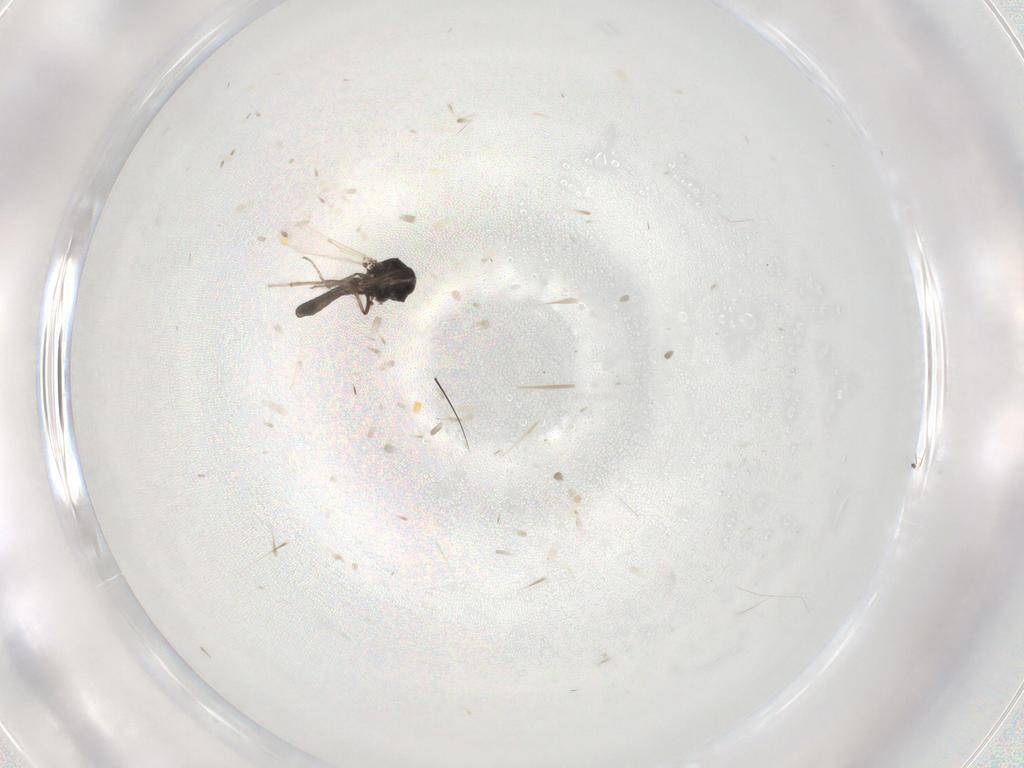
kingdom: Animalia
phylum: Arthropoda
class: Insecta
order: Diptera
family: Ceratopogonidae
